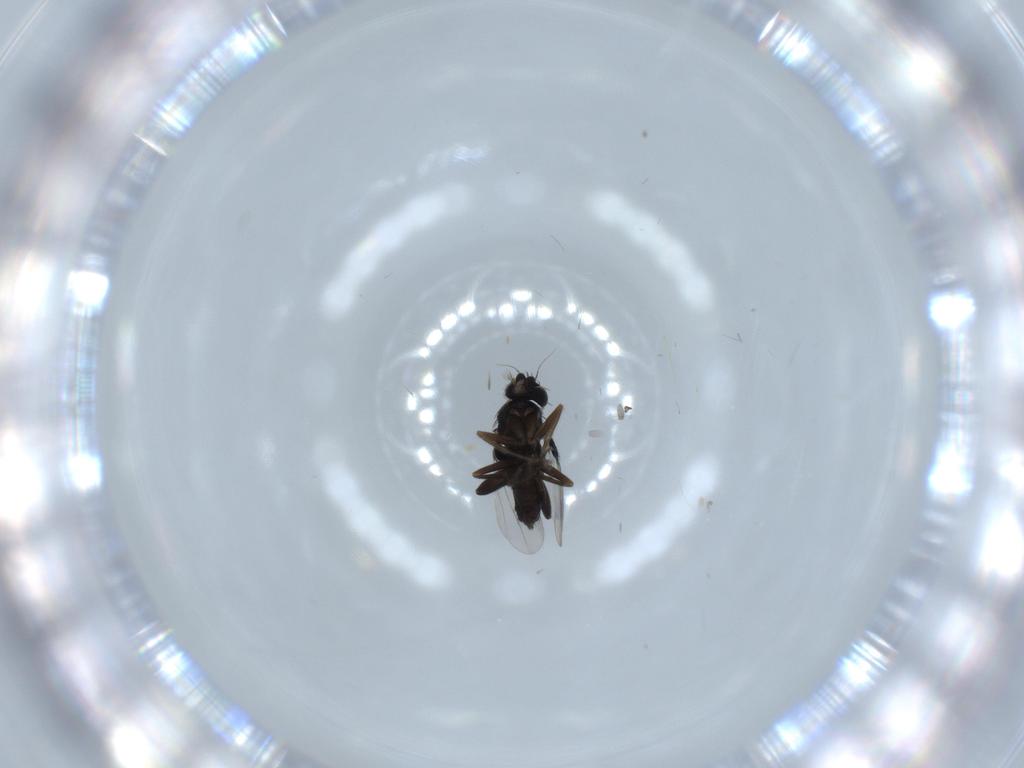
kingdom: Animalia
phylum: Arthropoda
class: Insecta
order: Diptera
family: Phoridae
